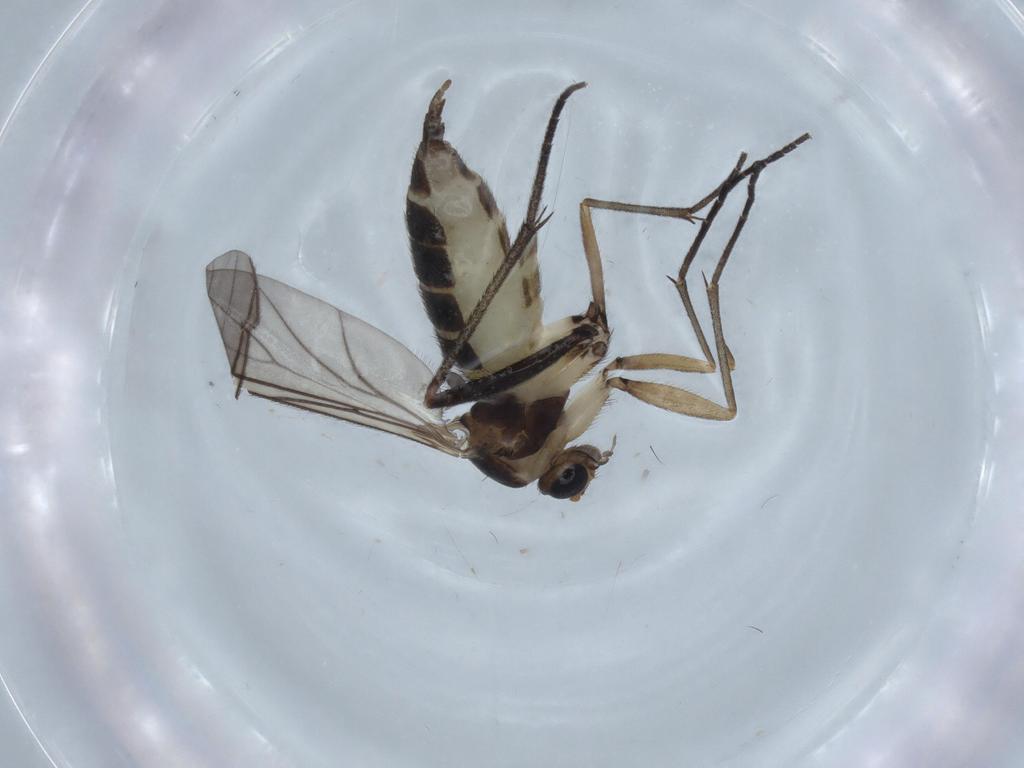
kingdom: Animalia
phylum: Arthropoda
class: Insecta
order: Diptera
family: Sciaridae
